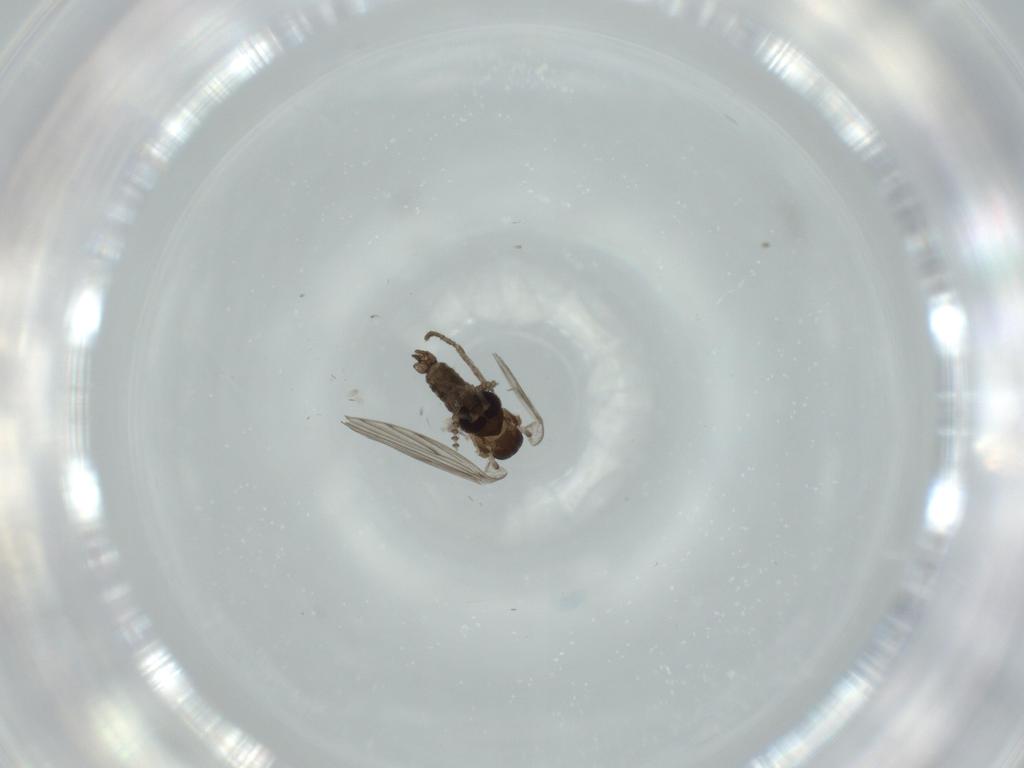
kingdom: Animalia
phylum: Arthropoda
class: Insecta
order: Diptera
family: Psychodidae
